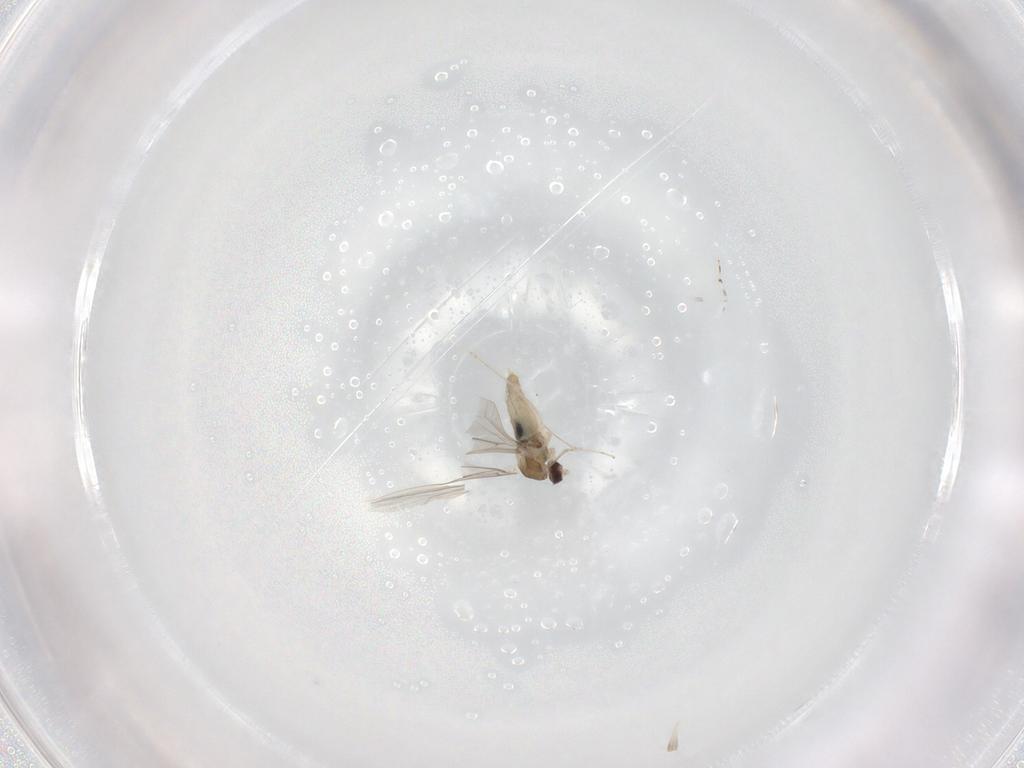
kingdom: Animalia
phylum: Arthropoda
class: Insecta
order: Diptera
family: Cecidomyiidae
